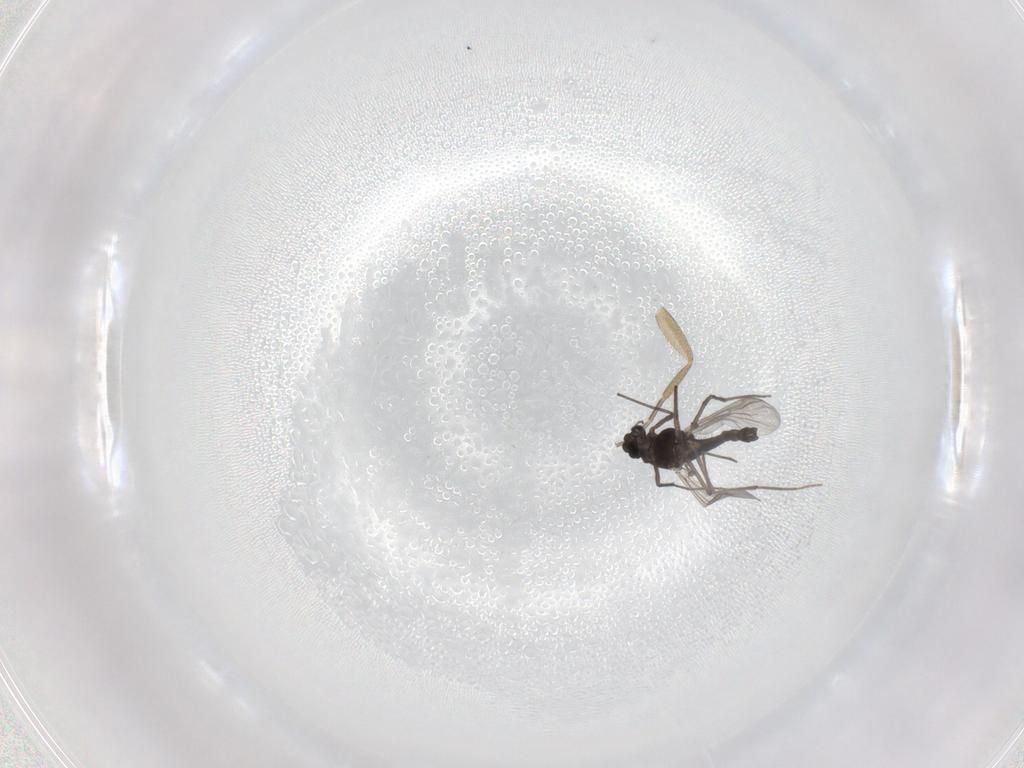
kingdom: Animalia
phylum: Arthropoda
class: Insecta
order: Diptera
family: Chironomidae
